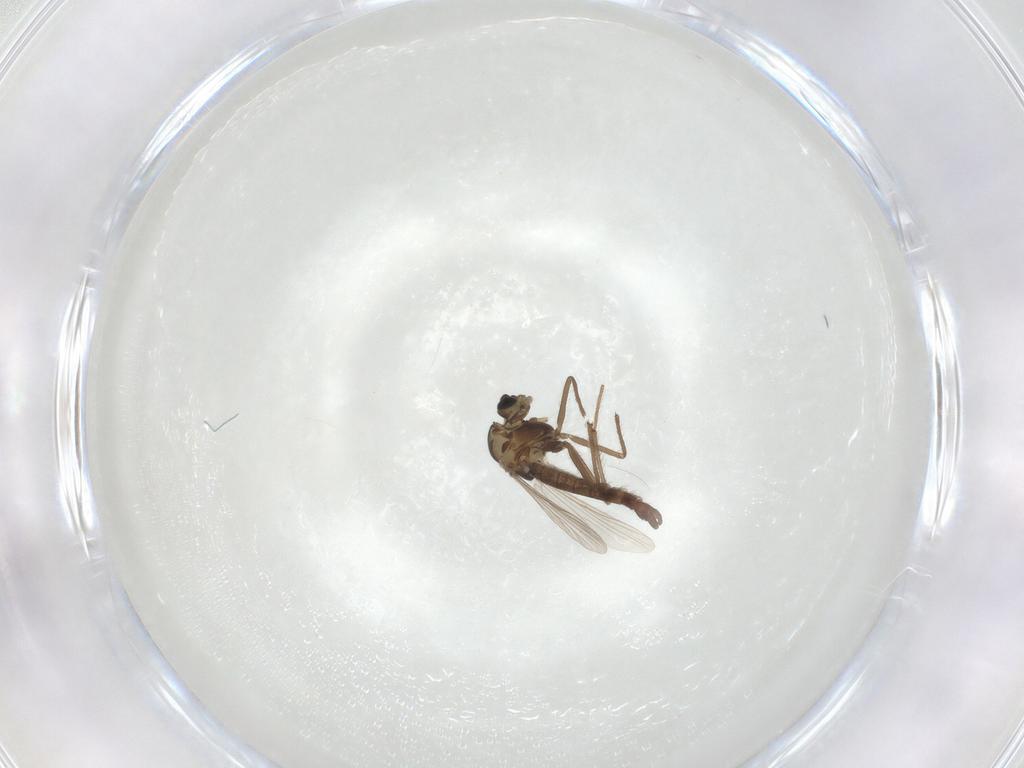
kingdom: Animalia
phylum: Arthropoda
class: Insecta
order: Diptera
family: Chironomidae
